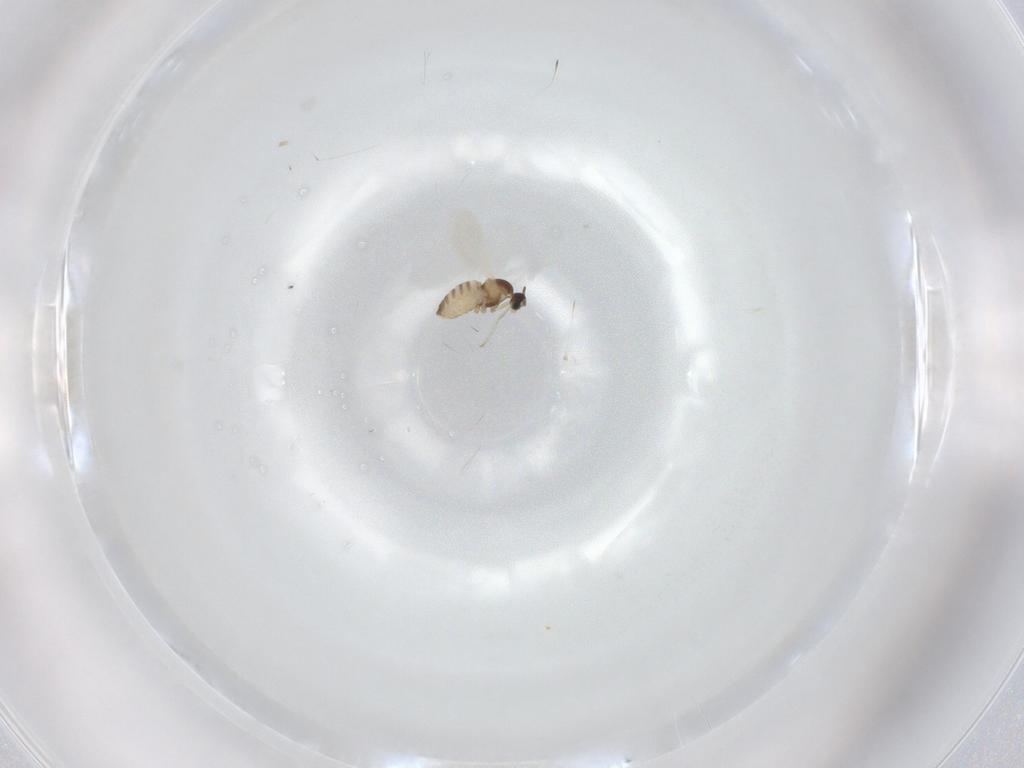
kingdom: Animalia
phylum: Arthropoda
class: Insecta
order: Diptera
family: Cecidomyiidae
